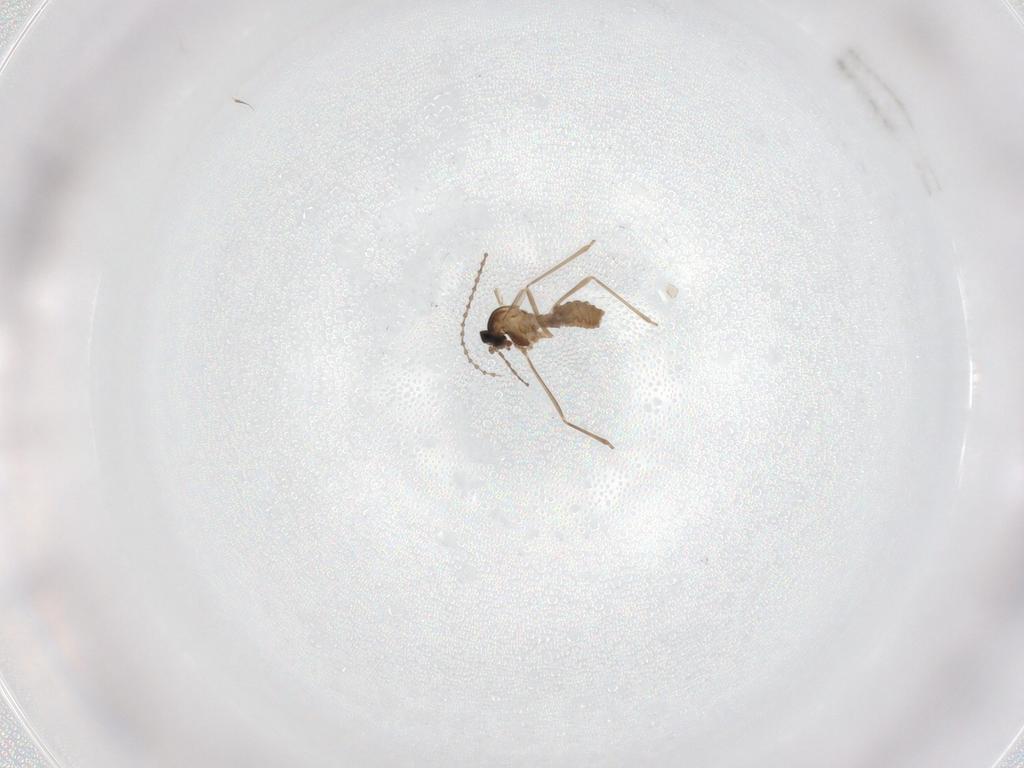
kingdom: Animalia
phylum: Arthropoda
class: Insecta
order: Diptera
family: Cecidomyiidae
